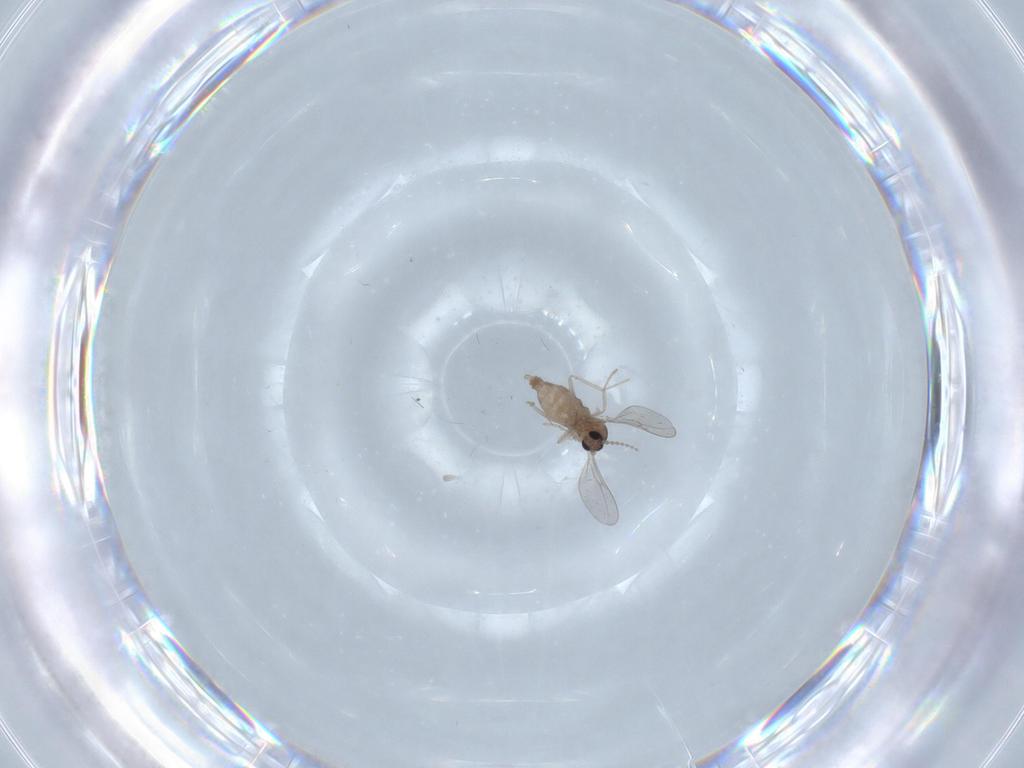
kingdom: Animalia
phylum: Arthropoda
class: Insecta
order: Diptera
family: Cecidomyiidae
